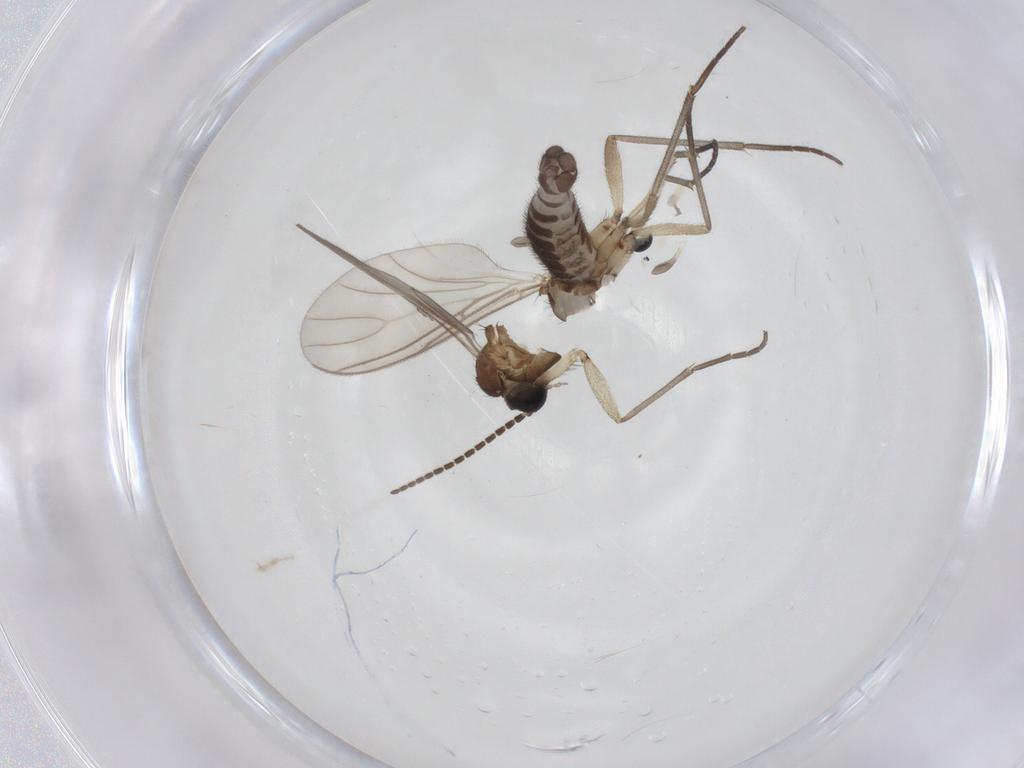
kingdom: Animalia
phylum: Arthropoda
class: Insecta
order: Diptera
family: Sciaridae
